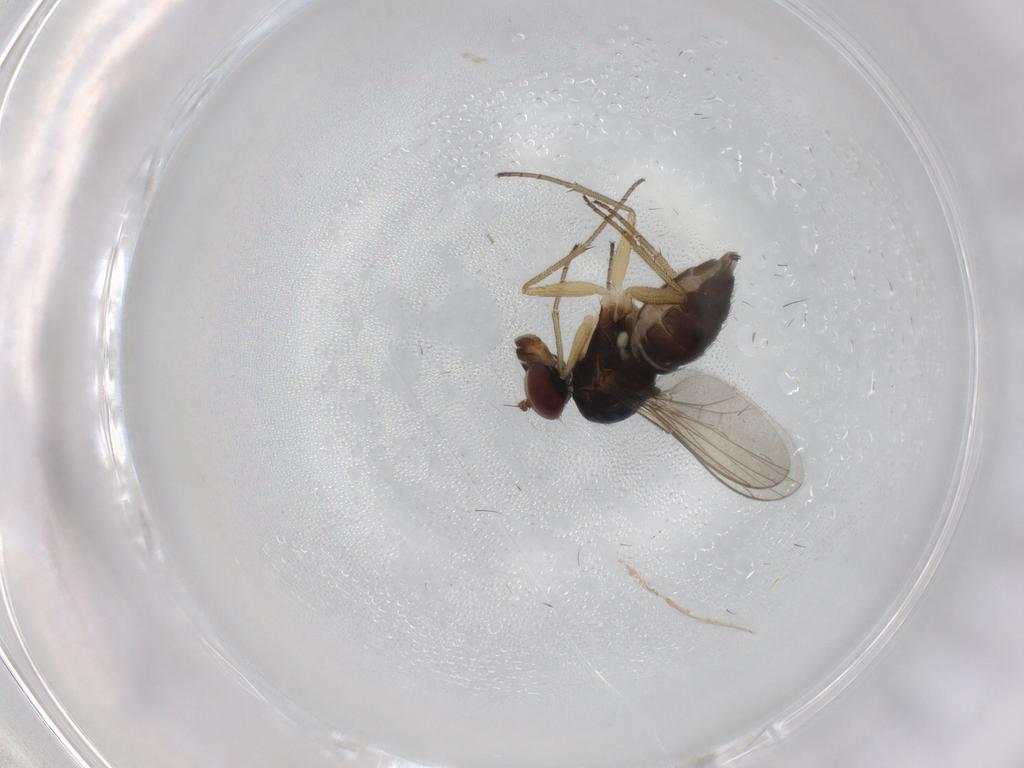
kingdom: Animalia
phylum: Arthropoda
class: Insecta
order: Diptera
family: Dolichopodidae
